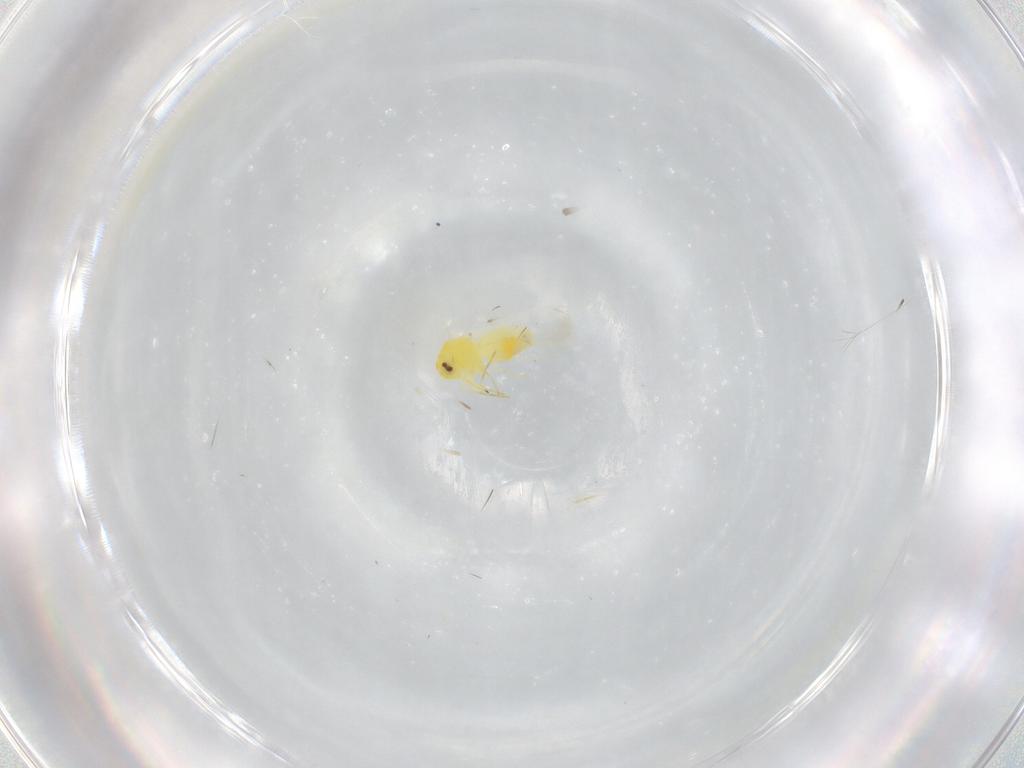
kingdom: Animalia
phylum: Arthropoda
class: Insecta
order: Hemiptera
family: Aleyrodidae
